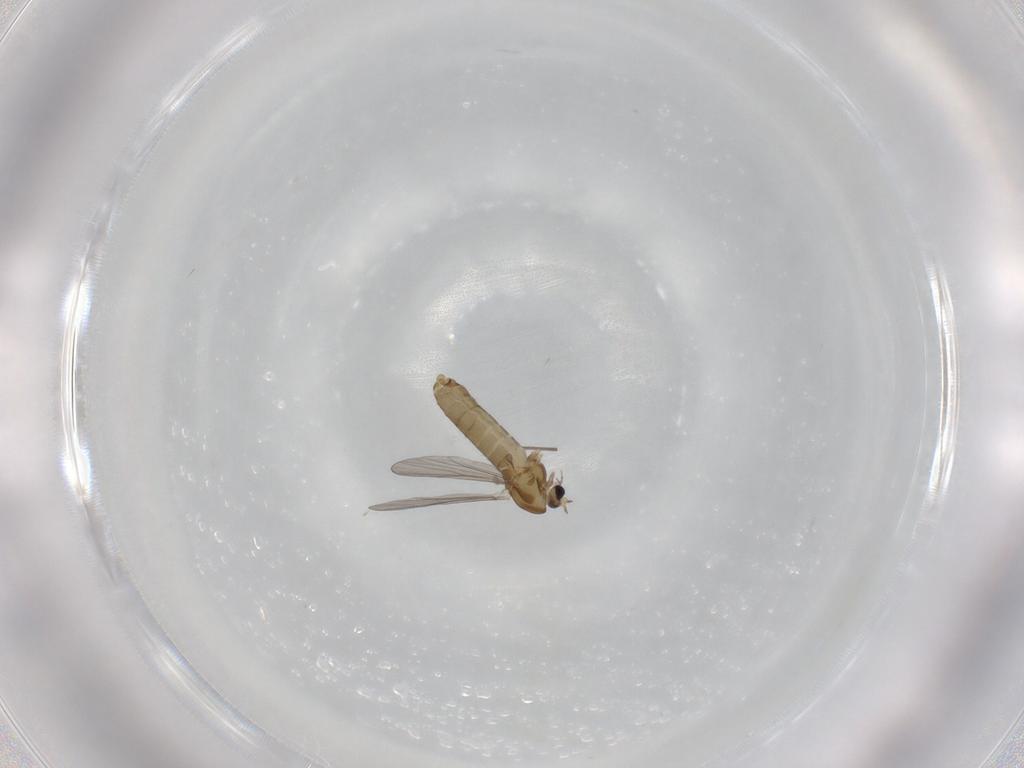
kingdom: Animalia
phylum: Arthropoda
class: Insecta
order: Diptera
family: Chironomidae
